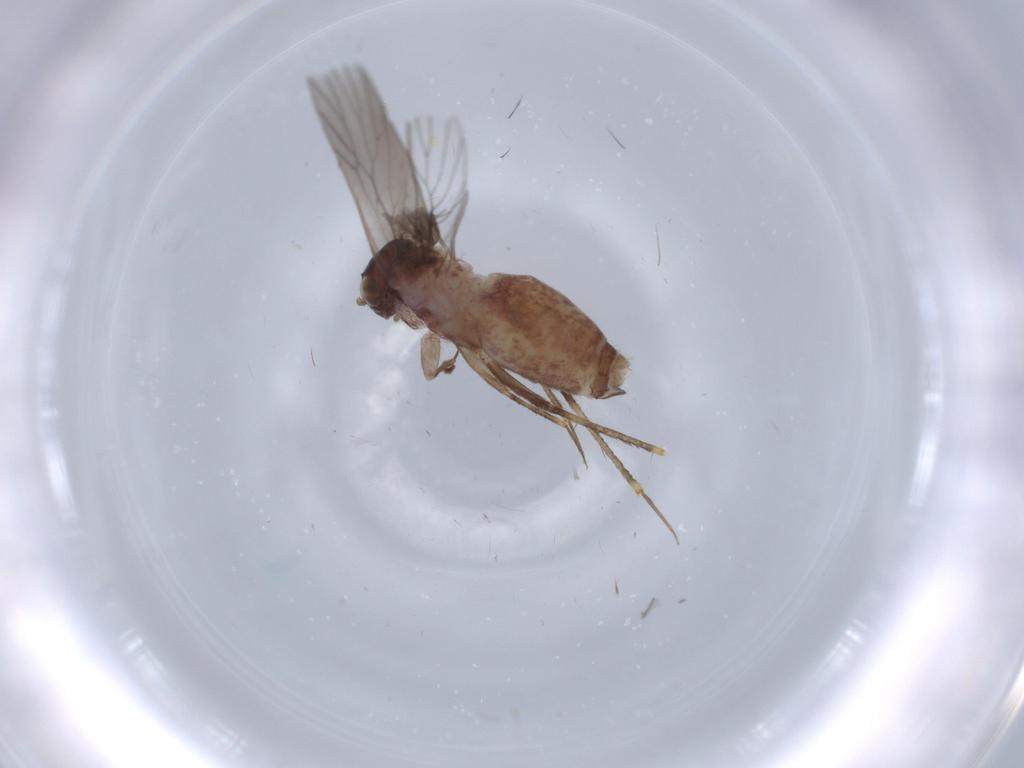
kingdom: Animalia
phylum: Arthropoda
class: Insecta
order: Psocodea
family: Lepidopsocidae
